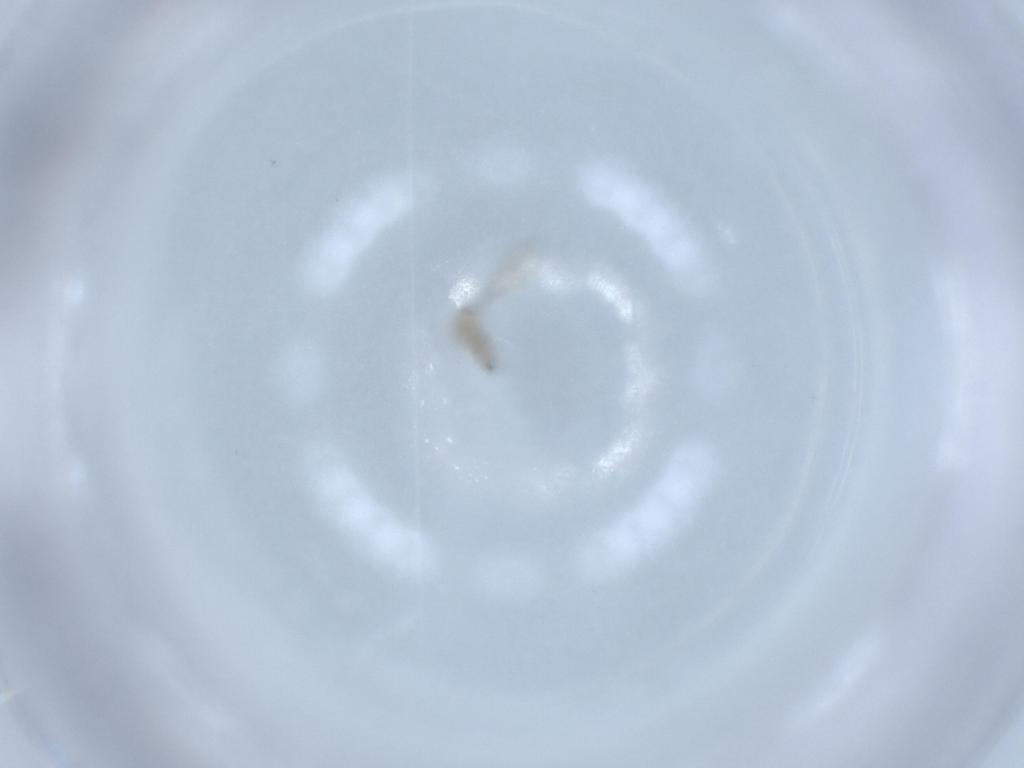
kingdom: Animalia
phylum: Arthropoda
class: Insecta
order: Diptera
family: Cecidomyiidae
